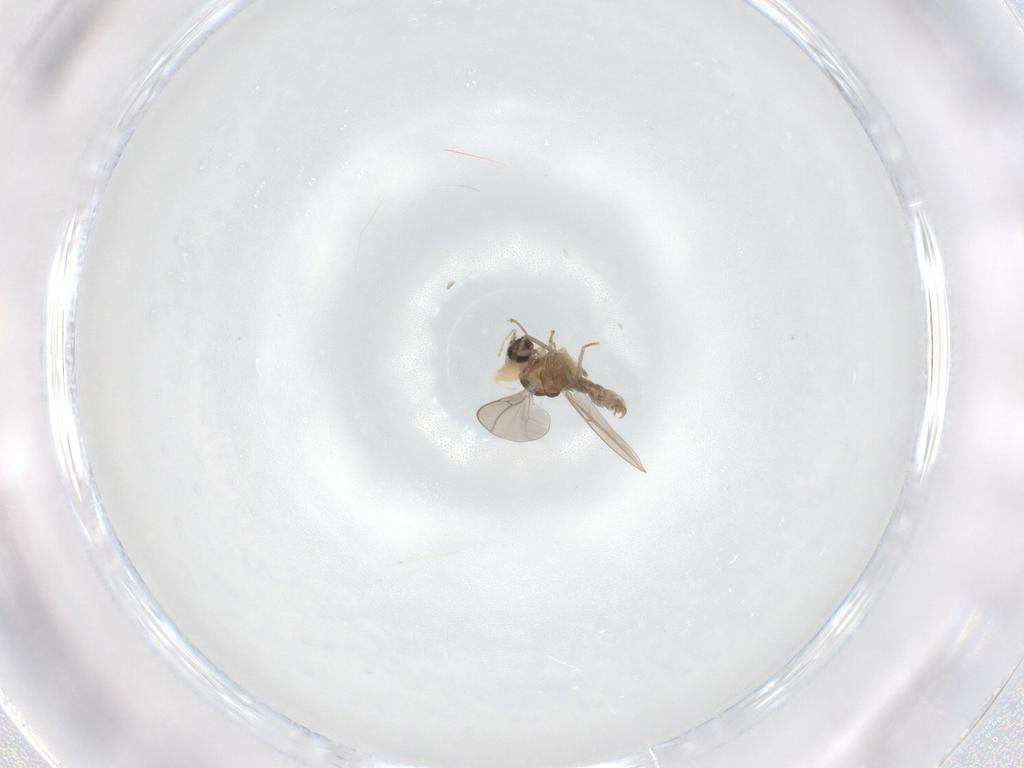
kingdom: Animalia
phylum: Arthropoda
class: Insecta
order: Diptera
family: Cecidomyiidae
